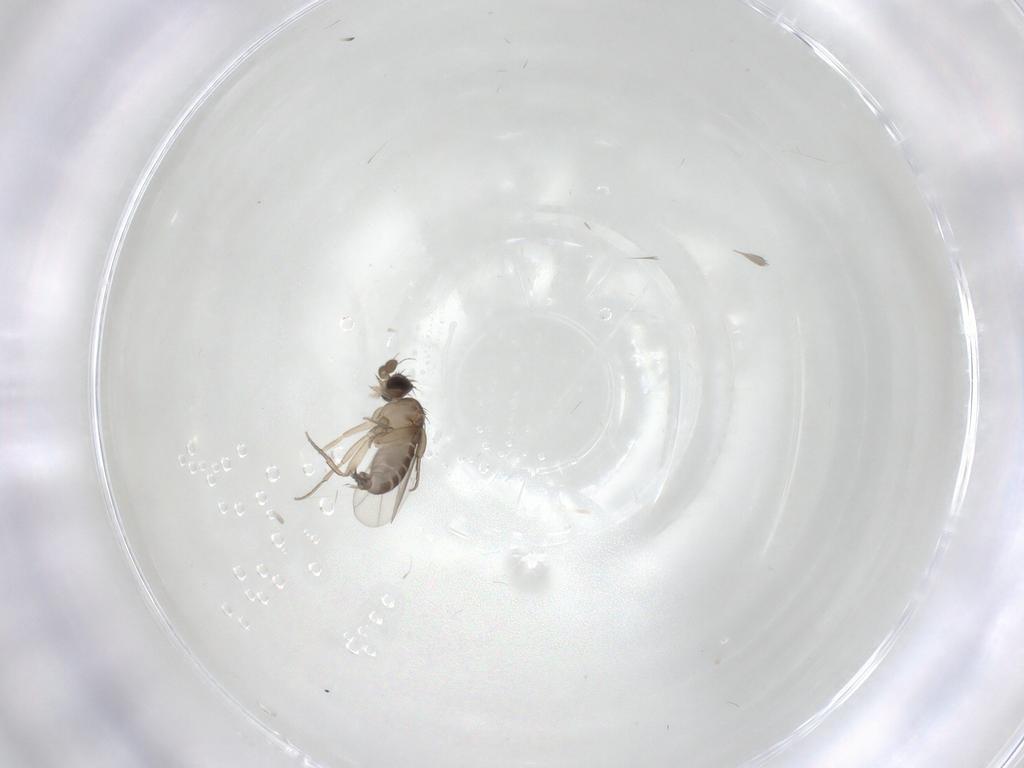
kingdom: Animalia
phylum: Arthropoda
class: Insecta
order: Diptera
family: Phoridae
